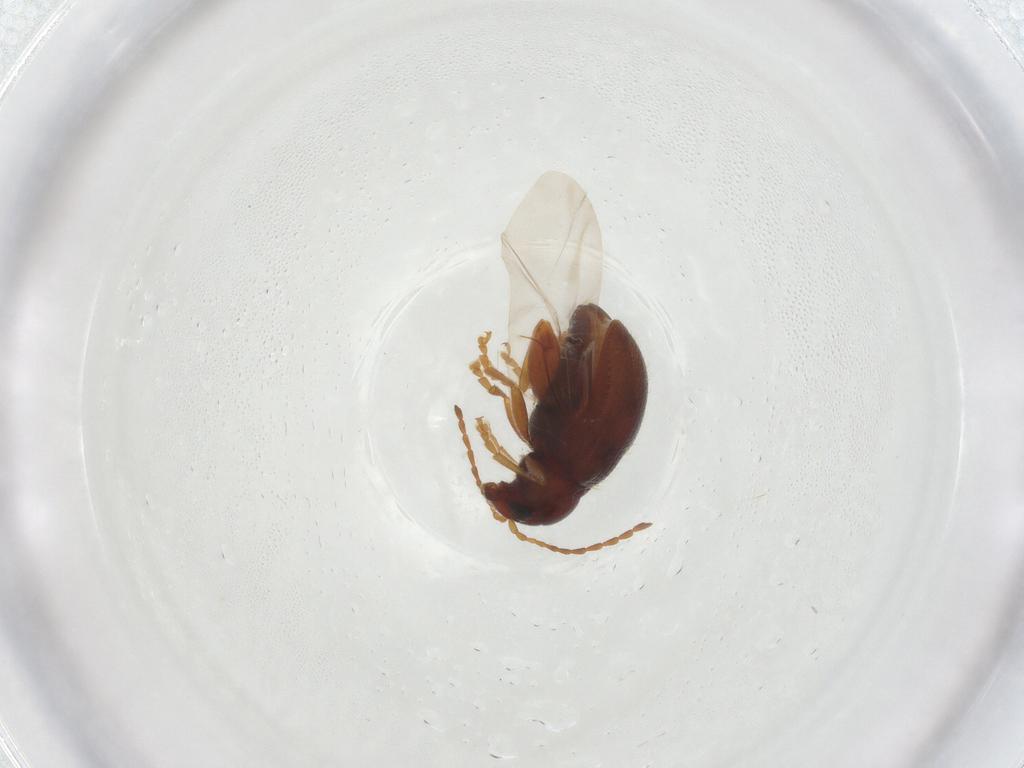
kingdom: Animalia
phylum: Arthropoda
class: Insecta
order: Coleoptera
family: Chrysomelidae
